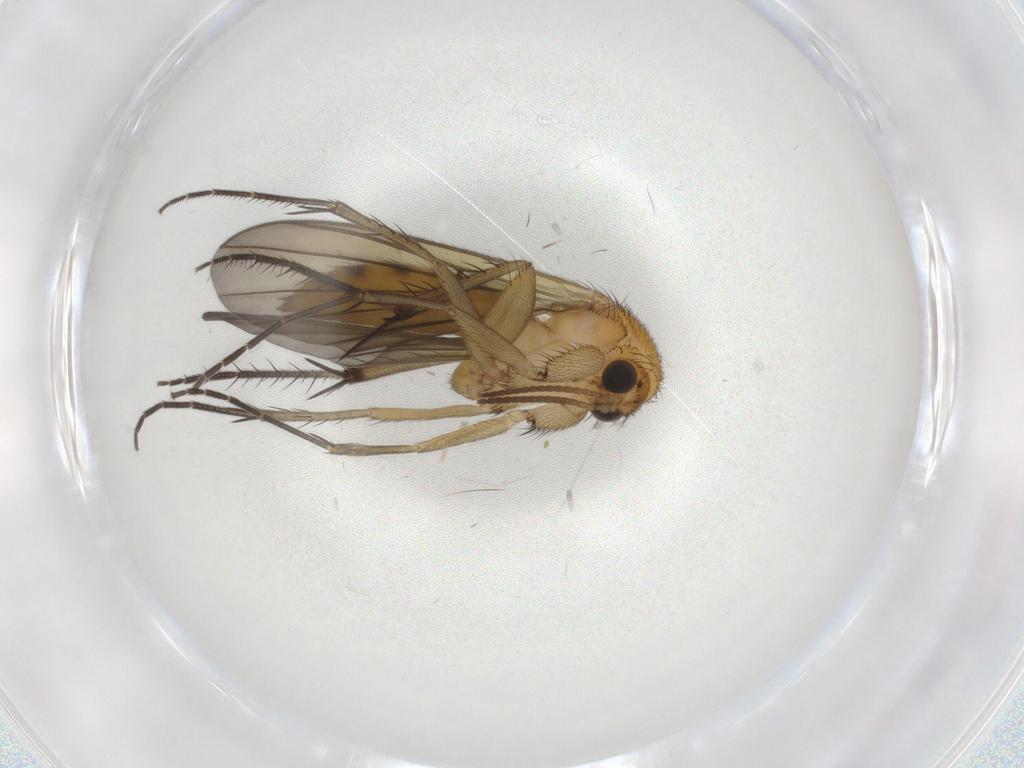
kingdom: Animalia
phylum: Arthropoda
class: Insecta
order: Diptera
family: Mycetophilidae
